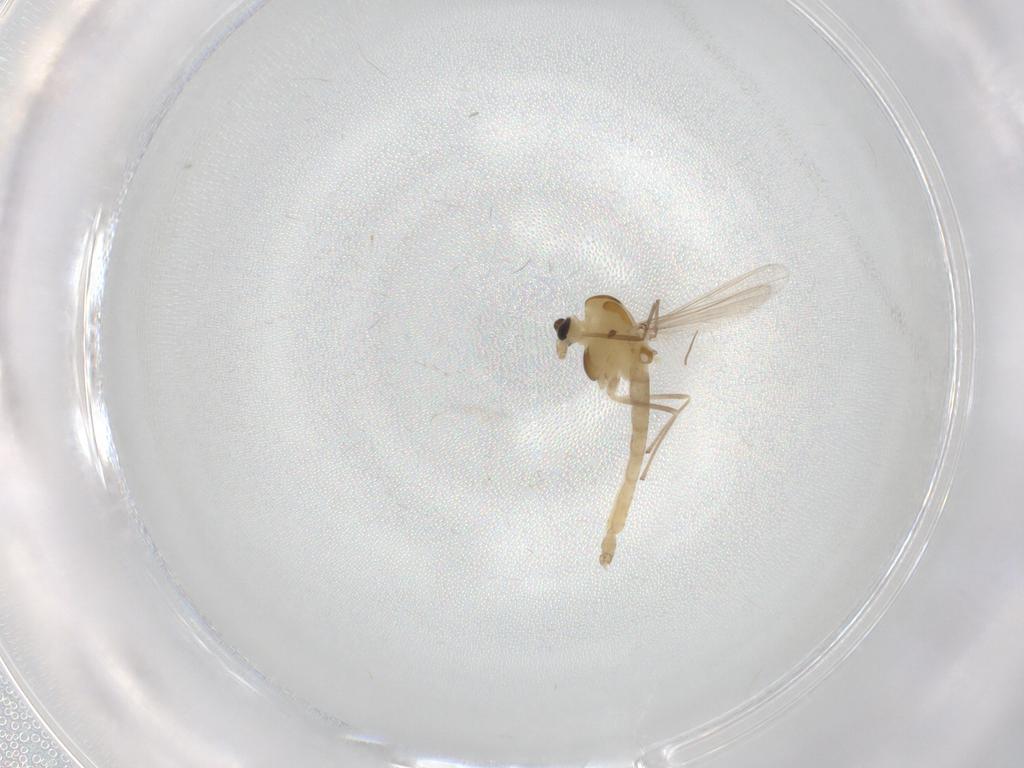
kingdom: Animalia
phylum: Arthropoda
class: Insecta
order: Diptera
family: Chironomidae
